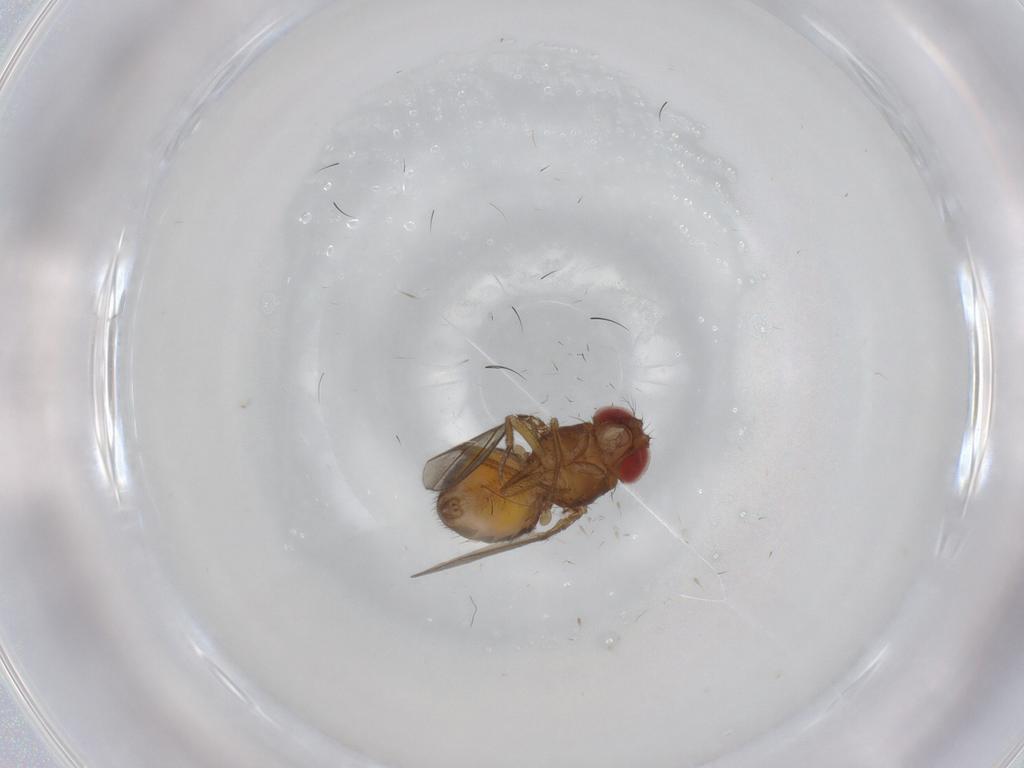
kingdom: Animalia
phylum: Arthropoda
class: Insecta
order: Diptera
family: Drosophilidae
